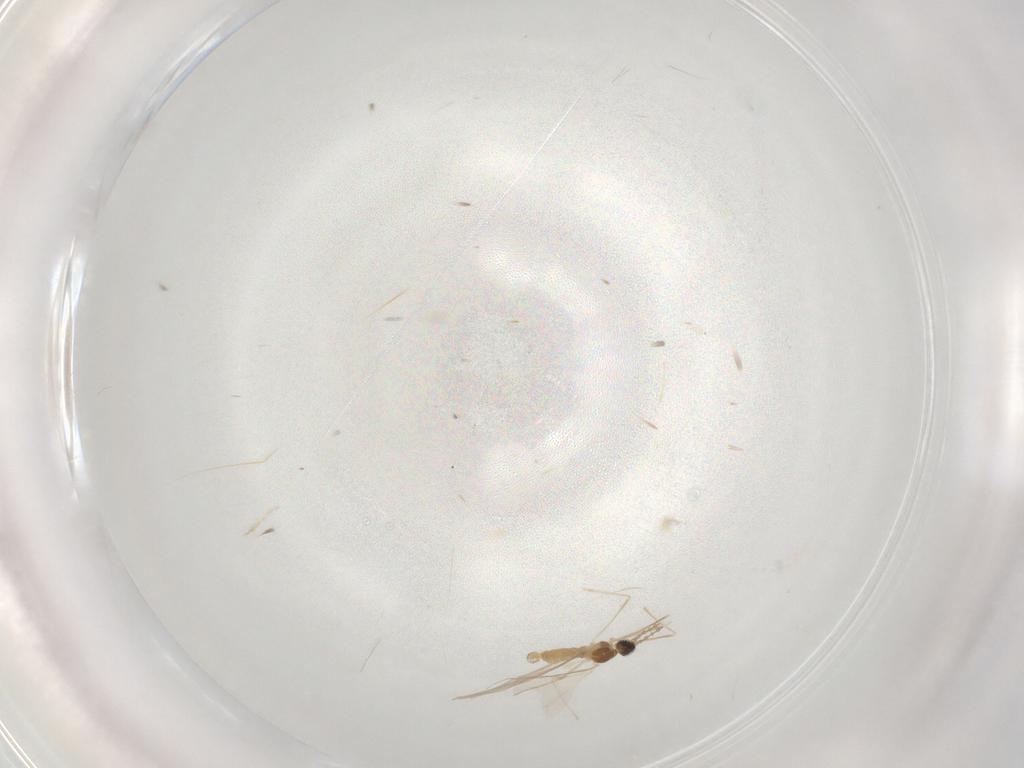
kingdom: Animalia
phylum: Arthropoda
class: Insecta
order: Diptera
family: Cecidomyiidae
